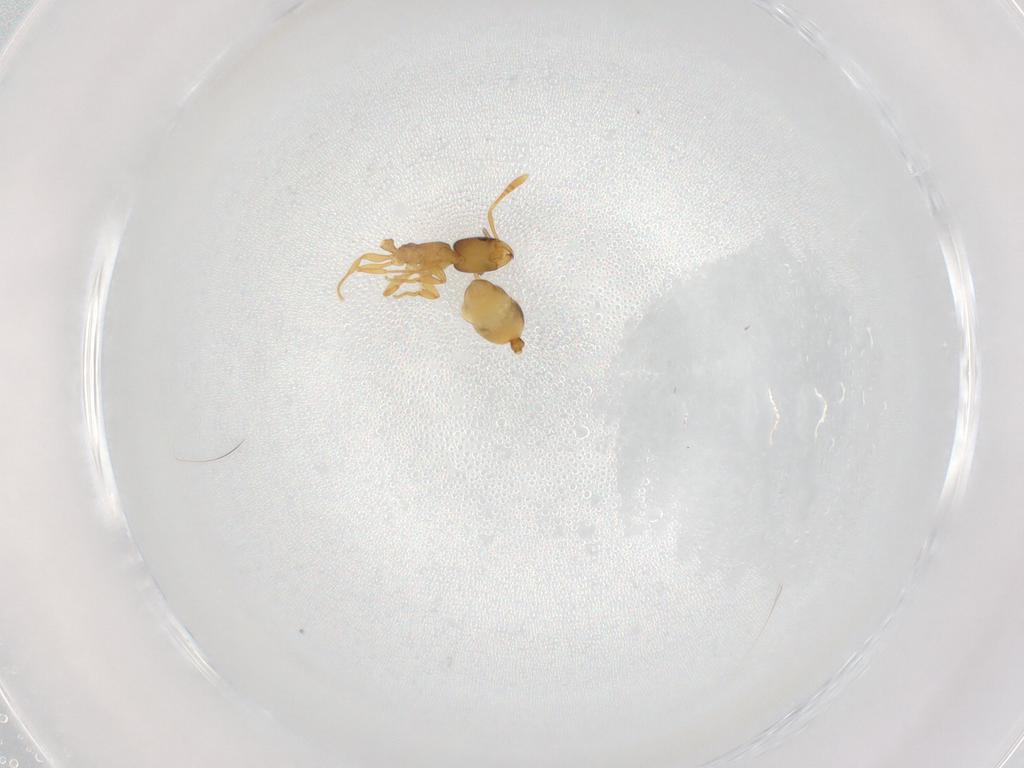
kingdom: Animalia
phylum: Arthropoda
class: Insecta
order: Hymenoptera
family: Formicidae
